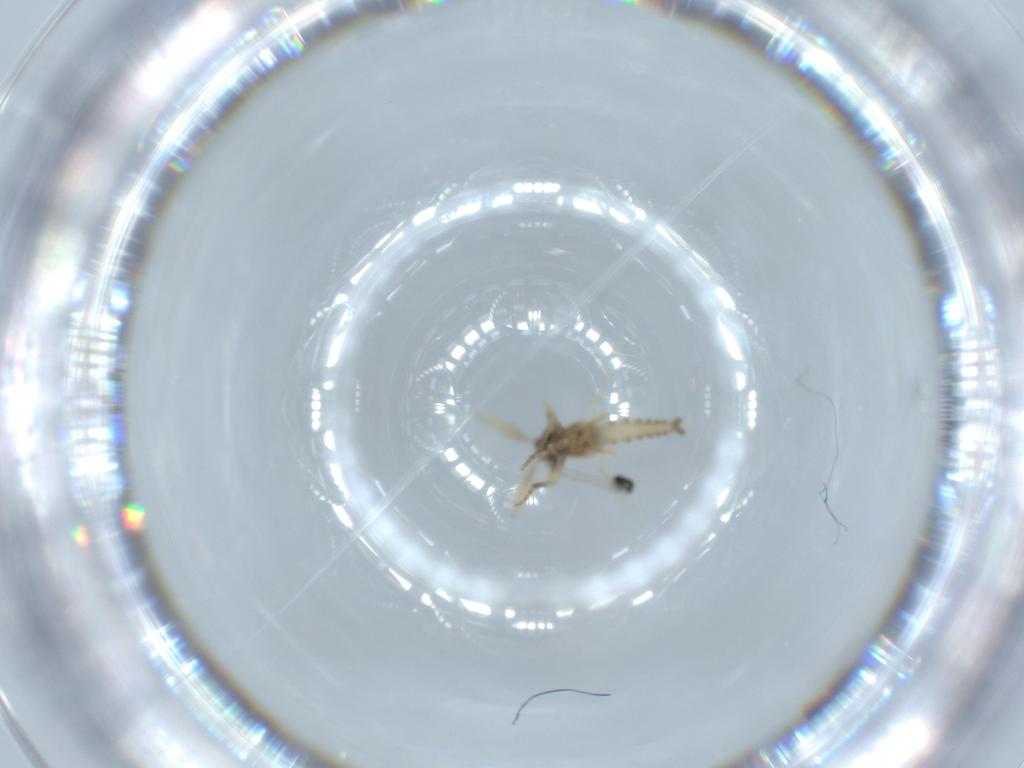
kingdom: Animalia
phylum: Arthropoda
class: Insecta
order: Diptera
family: Cecidomyiidae
